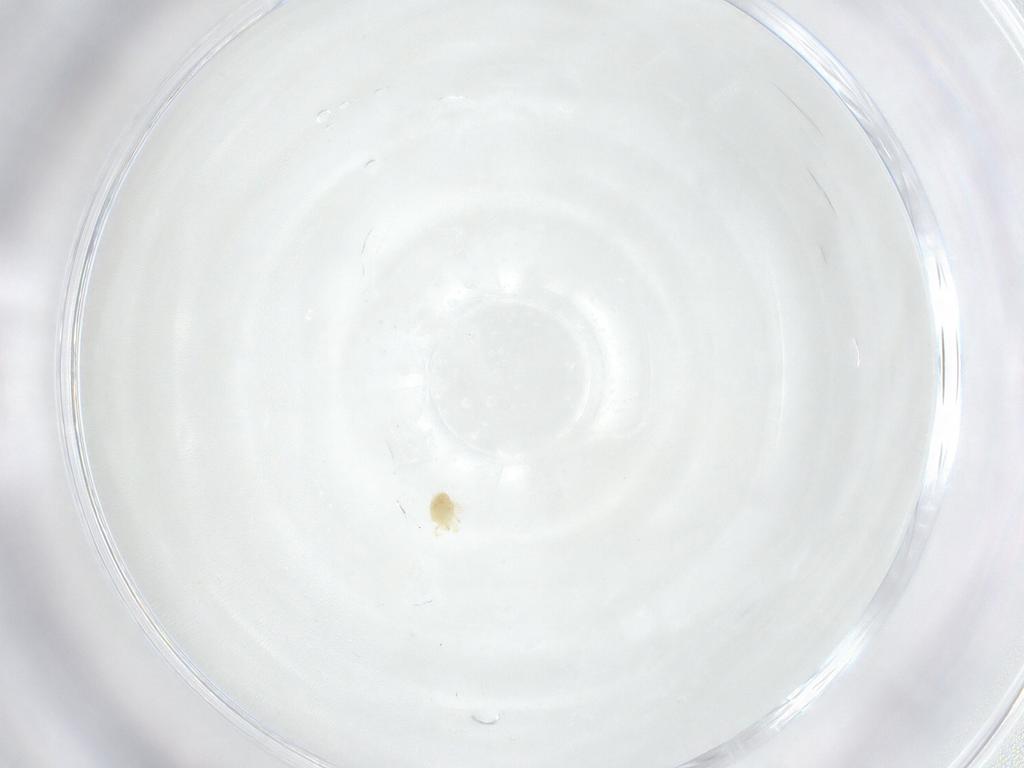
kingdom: Animalia
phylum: Arthropoda
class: Arachnida
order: Trombidiformes
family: Tetranychidae
